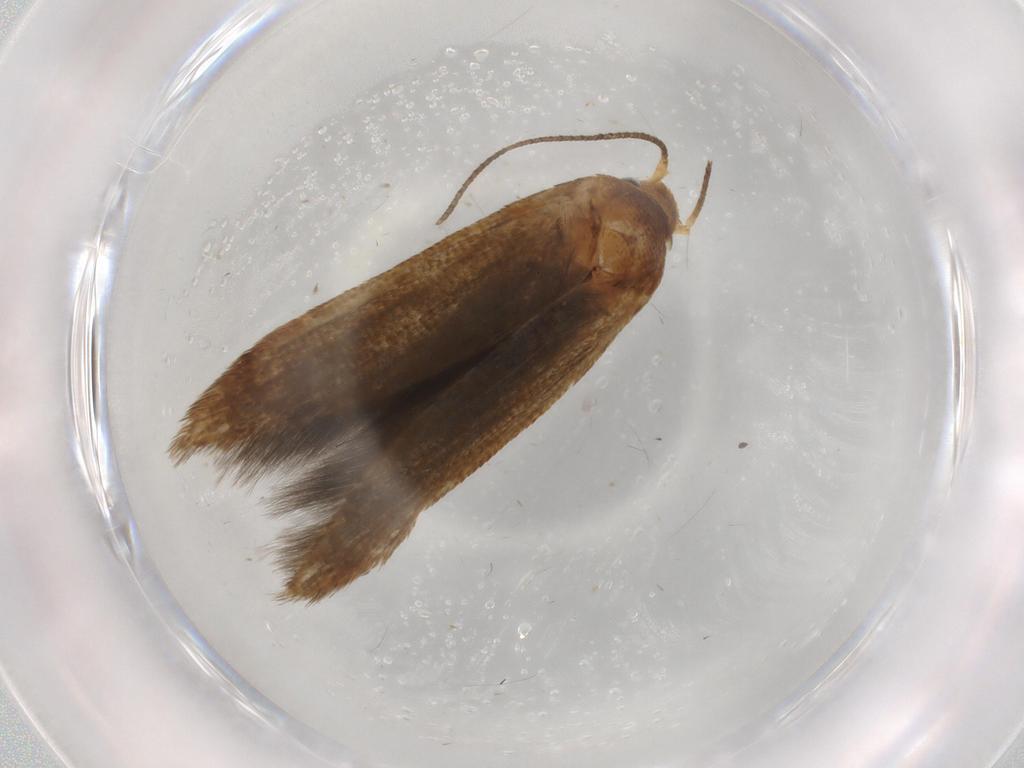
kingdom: Animalia
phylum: Arthropoda
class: Insecta
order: Lepidoptera
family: Blastobasidae
